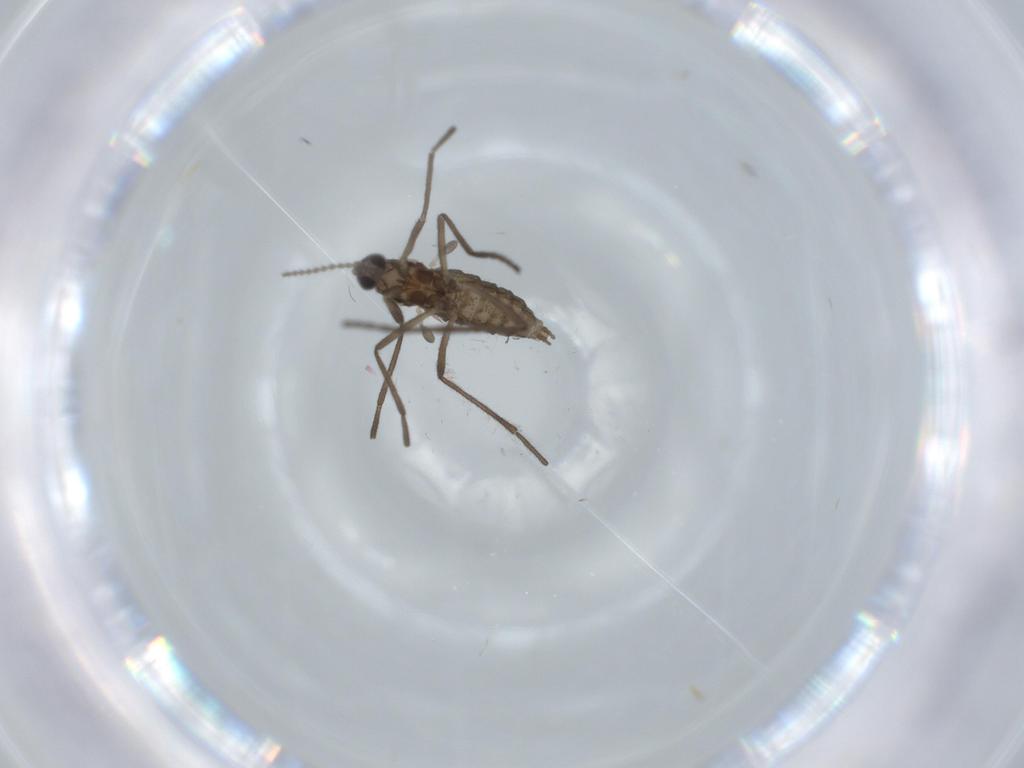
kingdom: Animalia
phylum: Arthropoda
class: Insecta
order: Diptera
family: Cecidomyiidae
